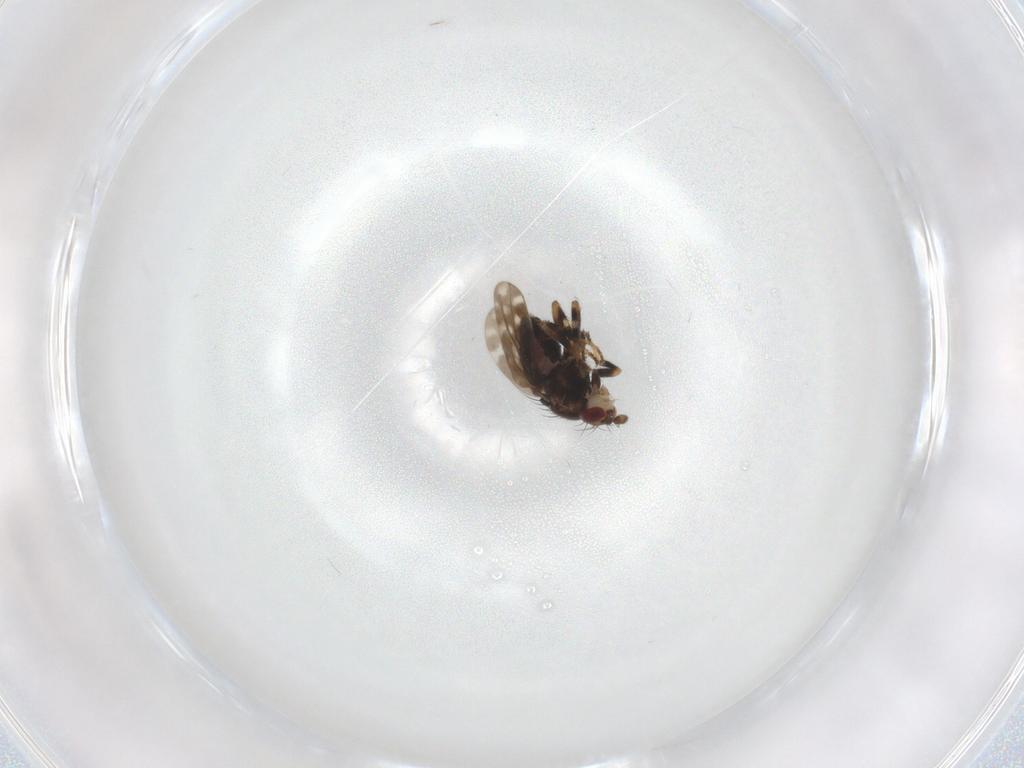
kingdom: Animalia
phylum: Arthropoda
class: Insecta
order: Diptera
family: Sphaeroceridae
